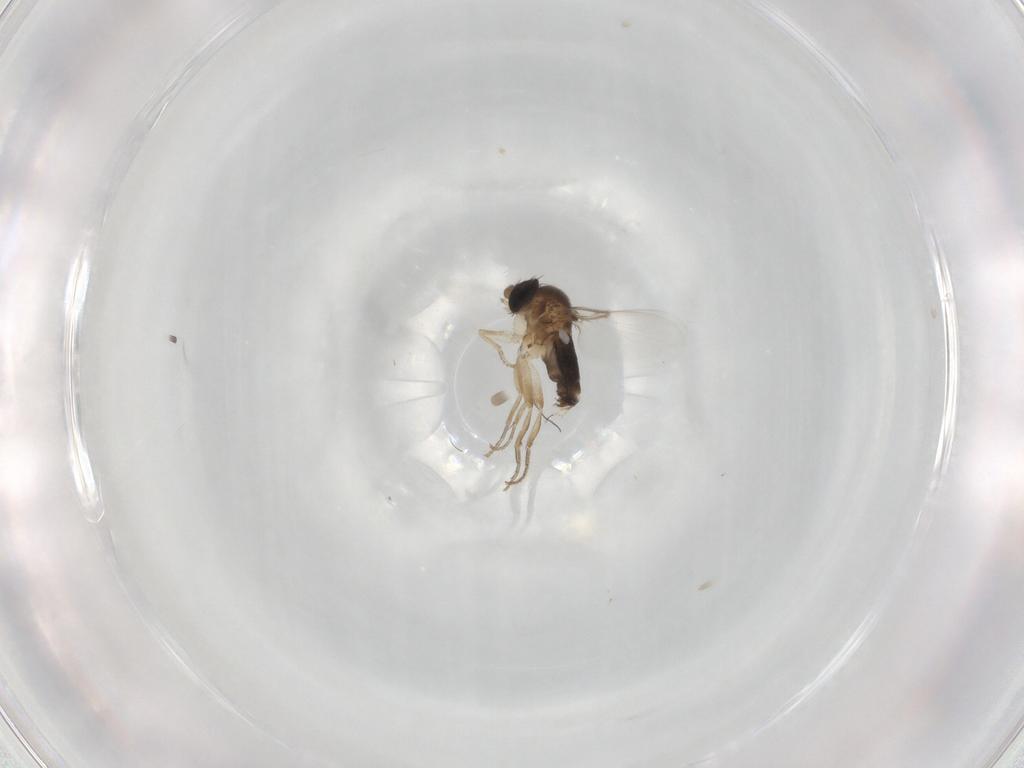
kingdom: Animalia
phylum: Arthropoda
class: Insecta
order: Diptera
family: Phoridae
